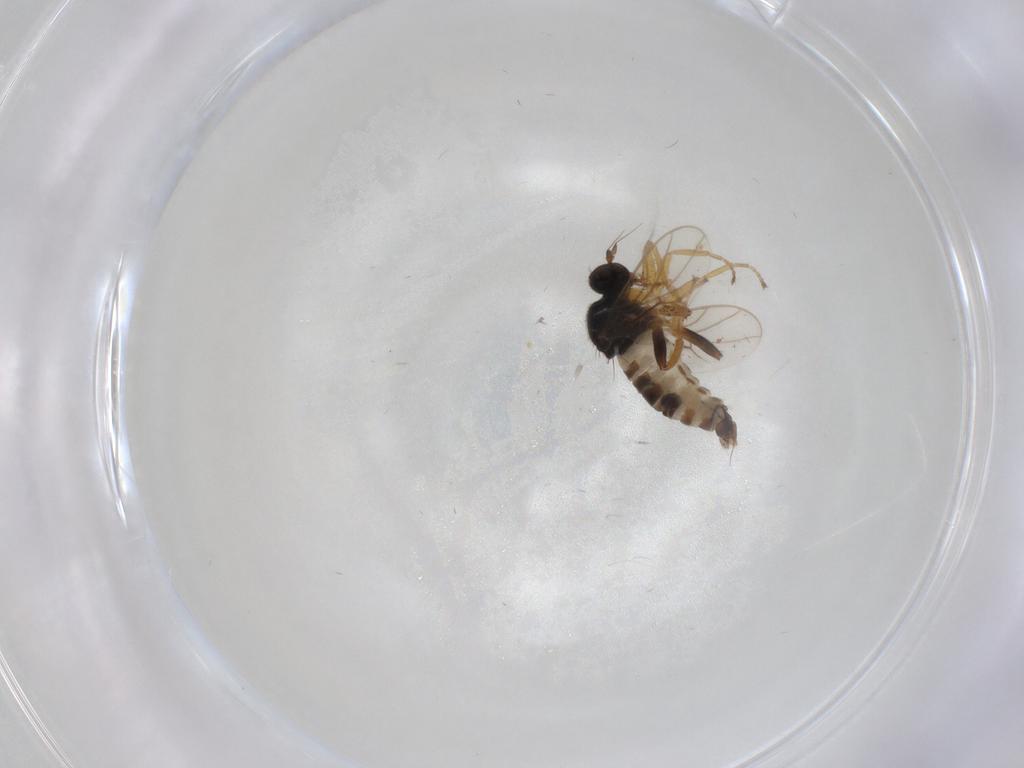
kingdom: Animalia
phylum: Arthropoda
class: Insecta
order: Diptera
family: Hybotidae
